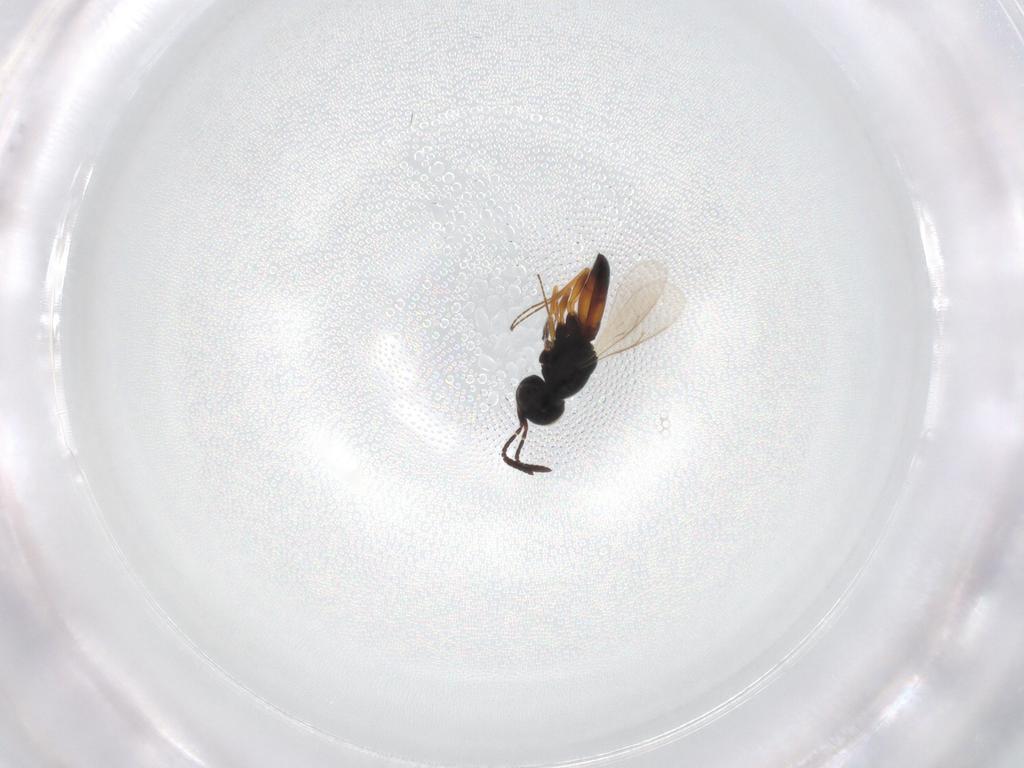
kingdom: Animalia
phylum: Arthropoda
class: Insecta
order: Hymenoptera
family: Scelionidae
